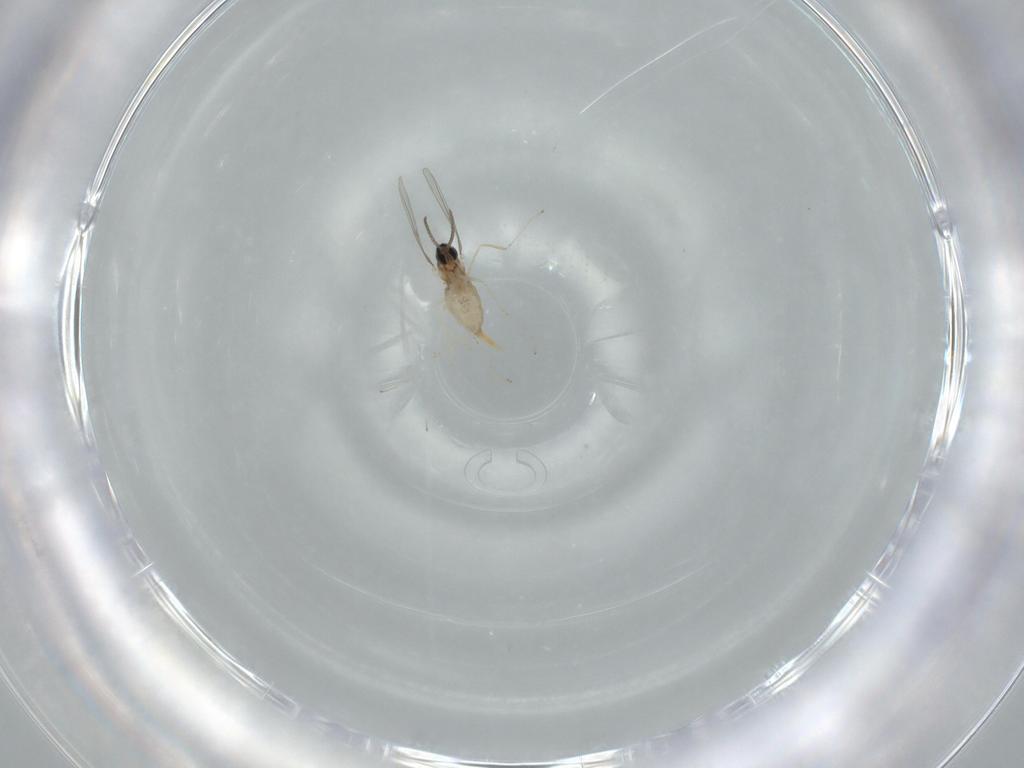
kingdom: Animalia
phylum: Arthropoda
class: Insecta
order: Diptera
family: Cecidomyiidae
